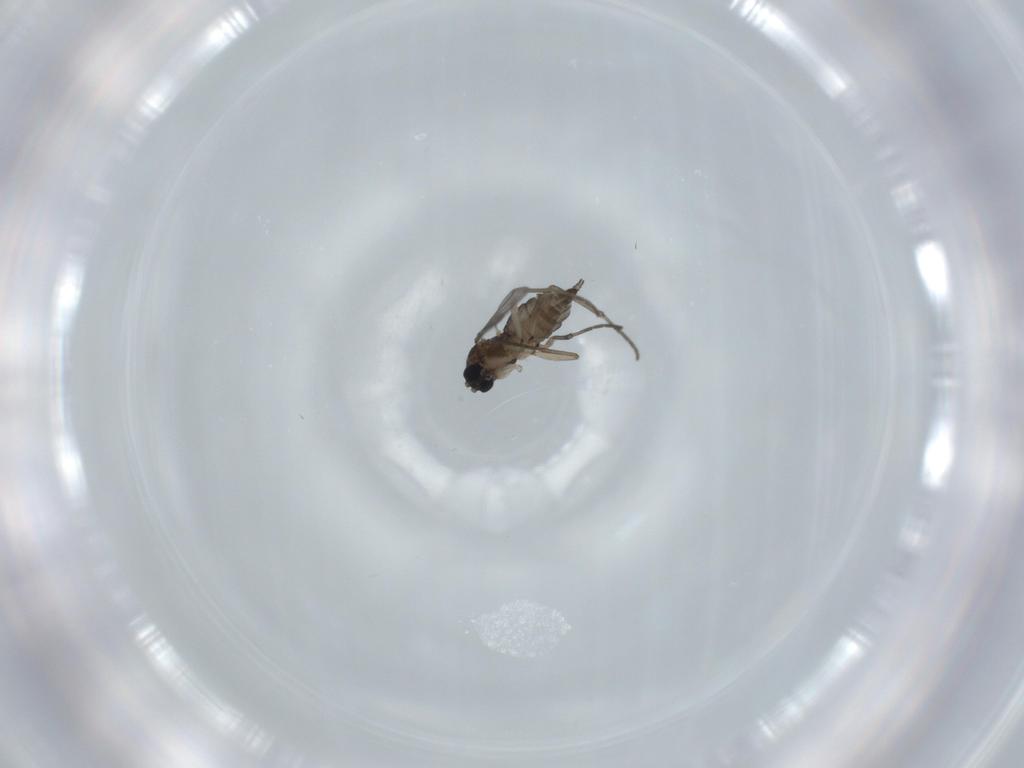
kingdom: Animalia
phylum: Arthropoda
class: Insecta
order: Diptera
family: Sciaridae
